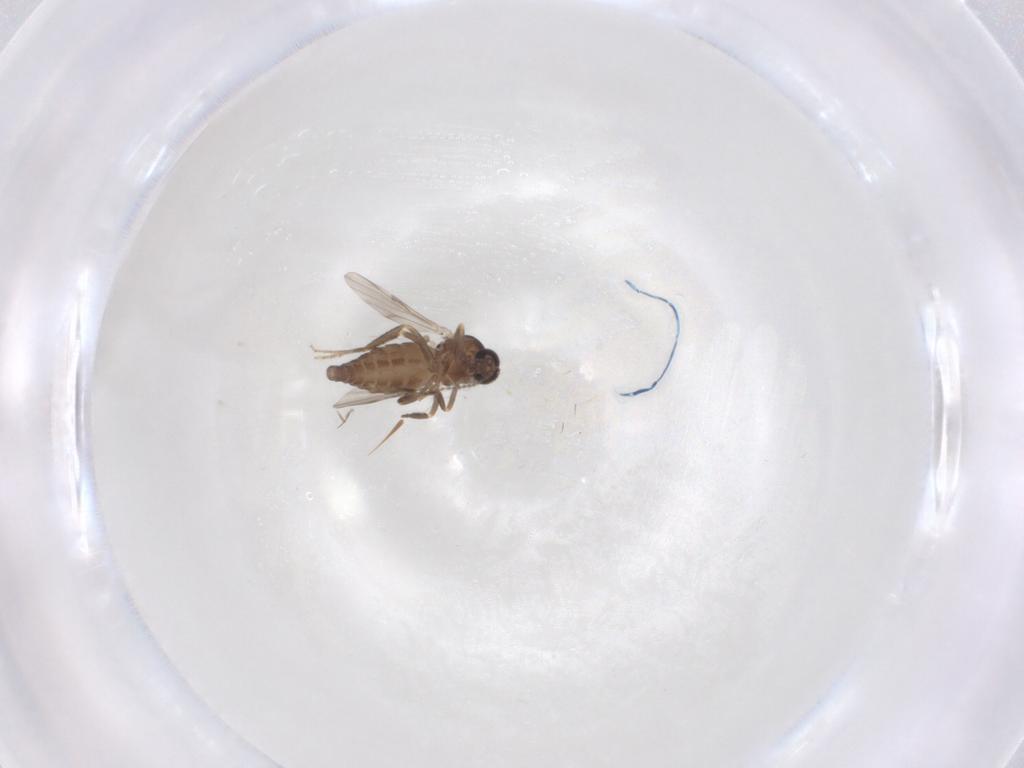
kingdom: Animalia
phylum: Arthropoda
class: Insecta
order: Diptera
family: Ceratopogonidae
